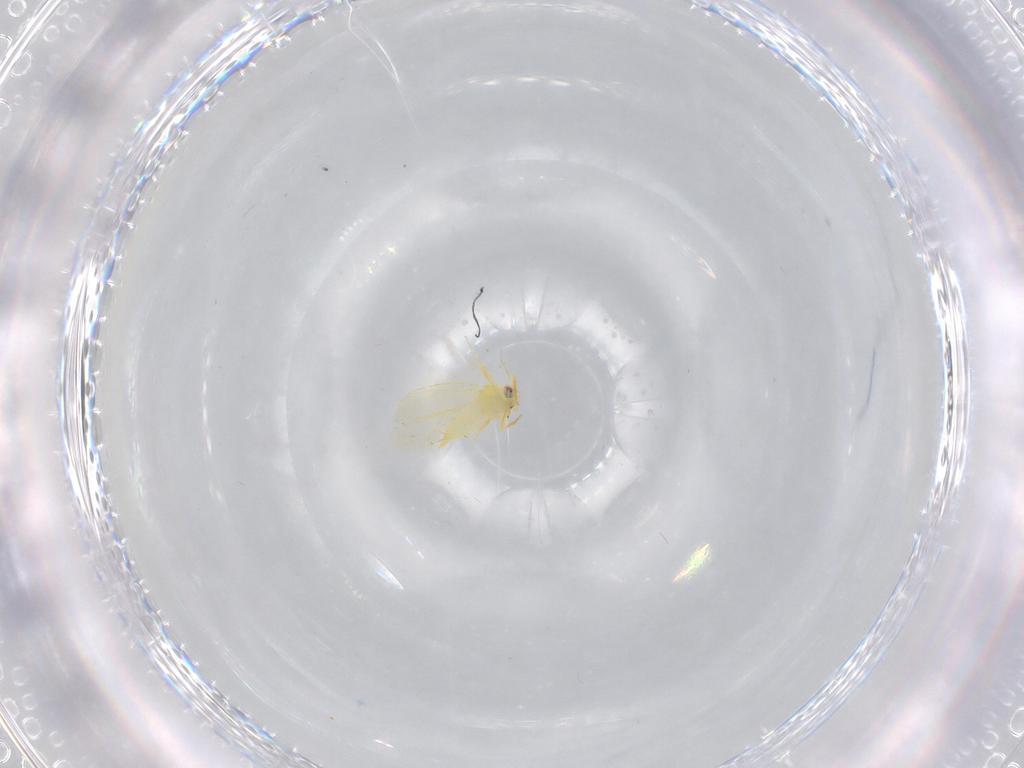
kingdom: Animalia
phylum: Arthropoda
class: Insecta
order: Hemiptera
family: Aleyrodidae
